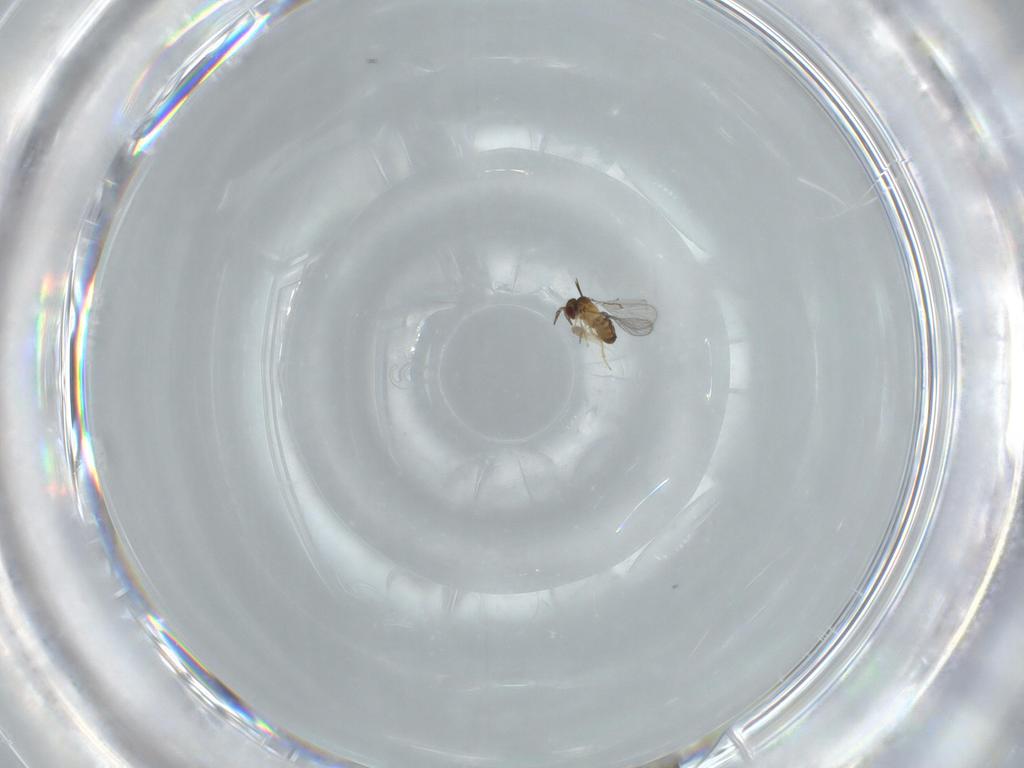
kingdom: Animalia
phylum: Arthropoda
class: Insecta
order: Hymenoptera
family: Trichogrammatidae
